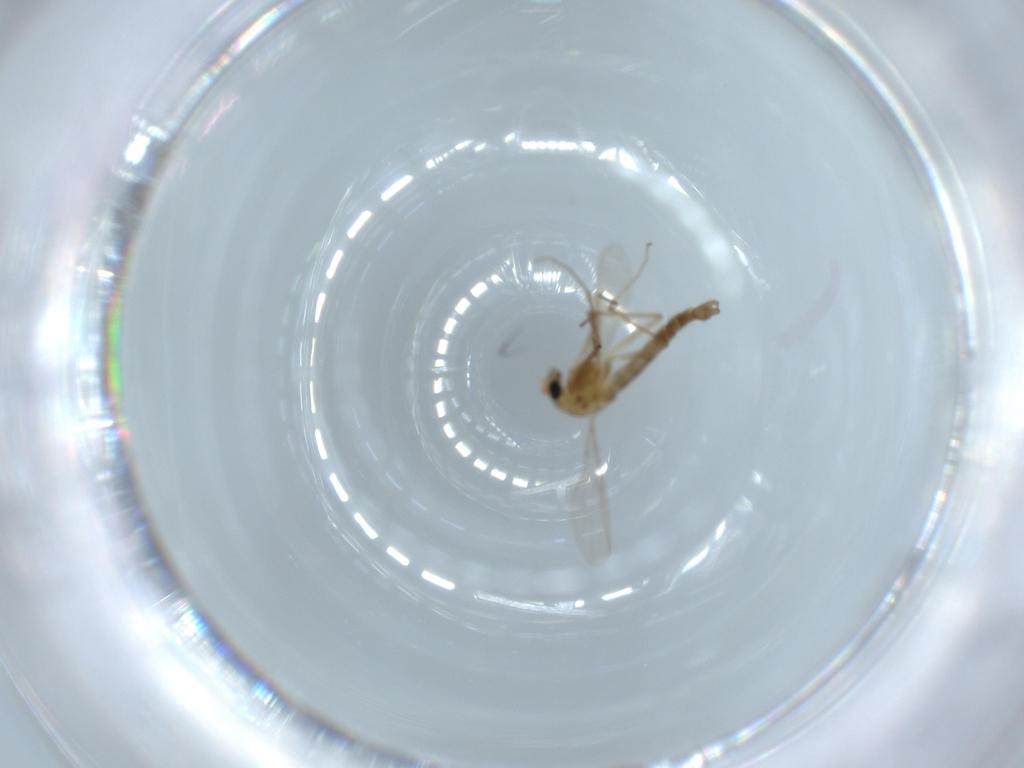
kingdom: Animalia
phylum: Arthropoda
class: Insecta
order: Diptera
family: Chironomidae
